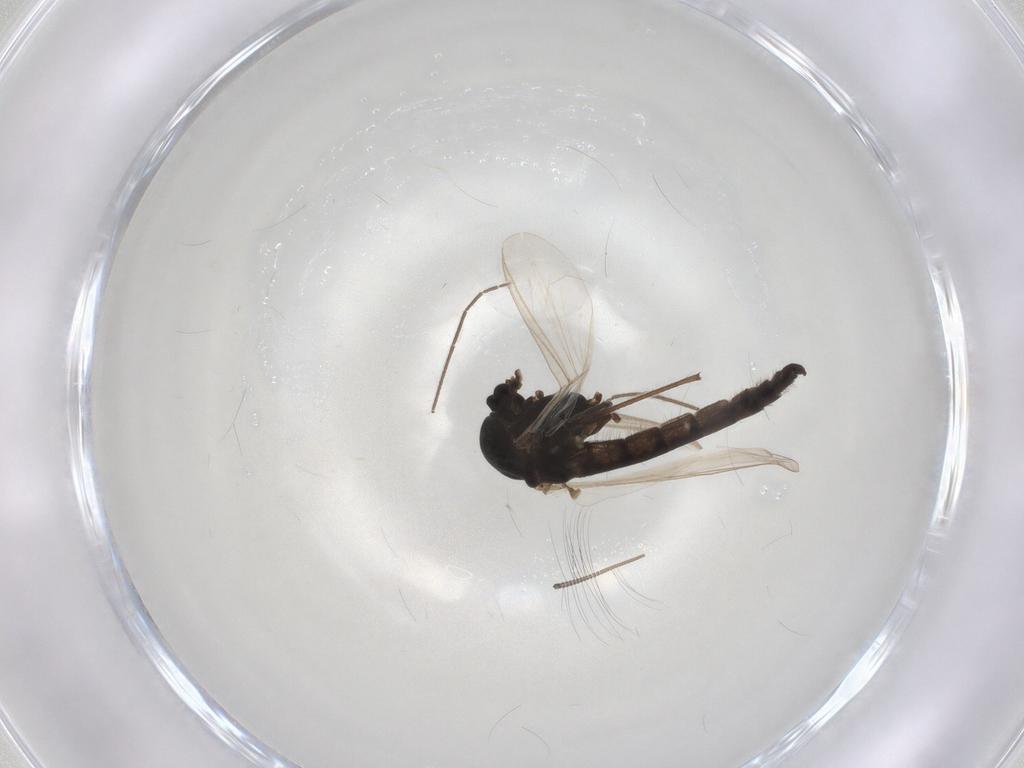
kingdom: Animalia
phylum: Arthropoda
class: Insecta
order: Diptera
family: Chironomidae
